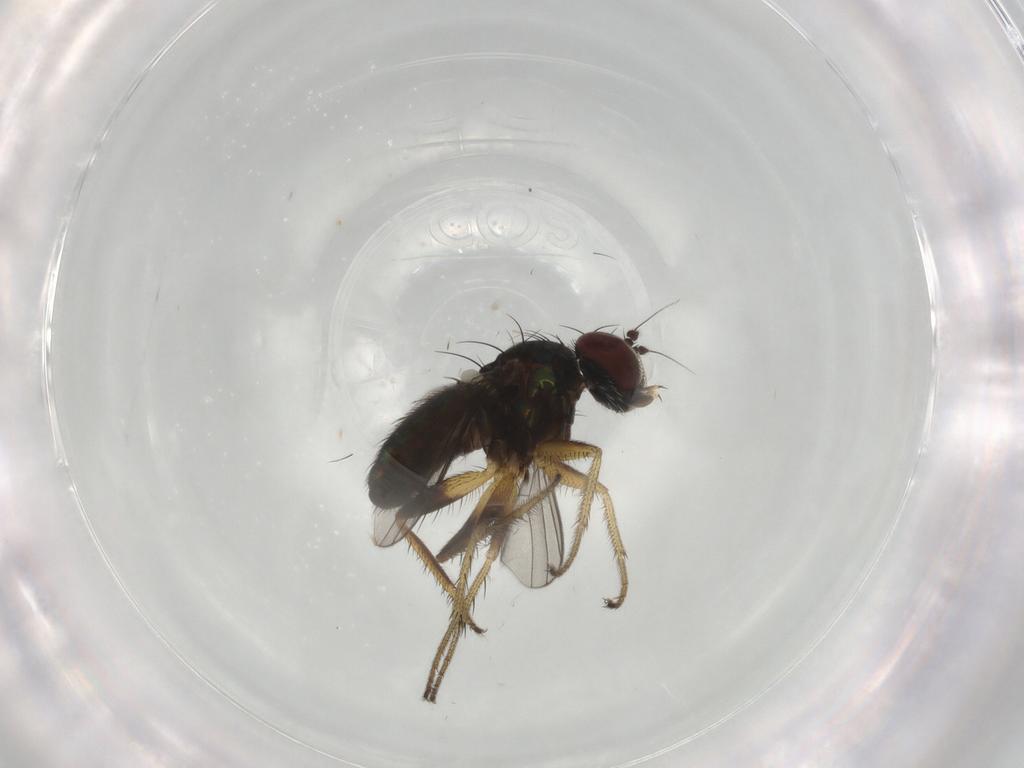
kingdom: Animalia
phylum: Arthropoda
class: Insecta
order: Diptera
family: Dolichopodidae
